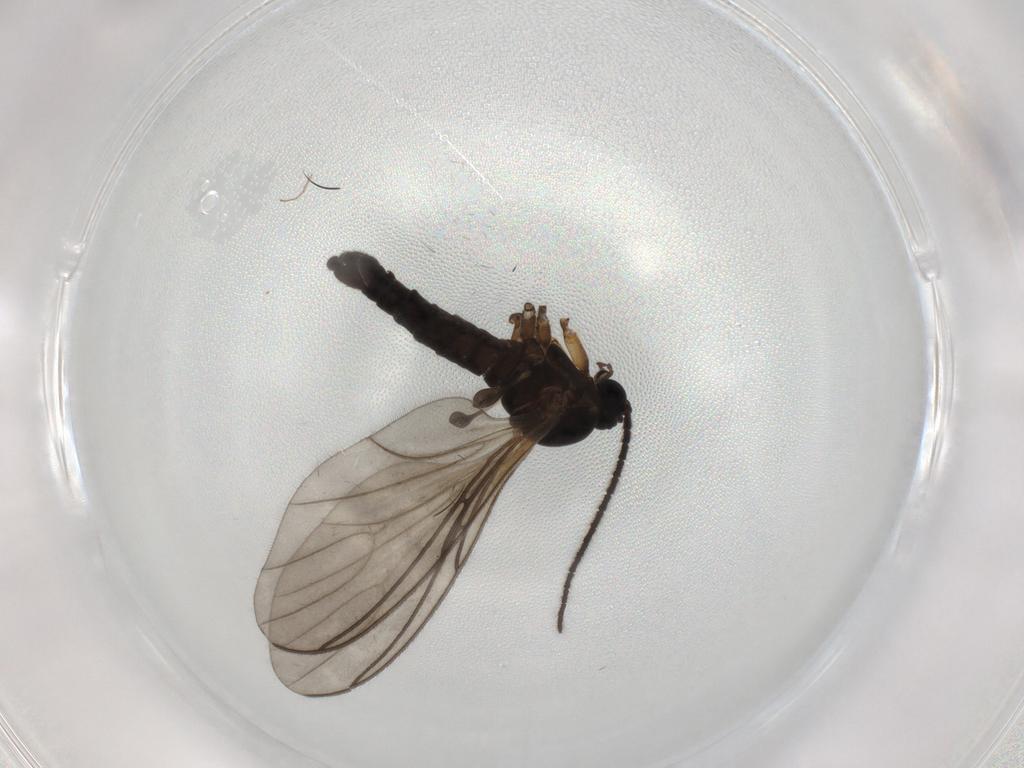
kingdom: Animalia
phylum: Arthropoda
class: Insecta
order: Diptera
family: Sciaridae
